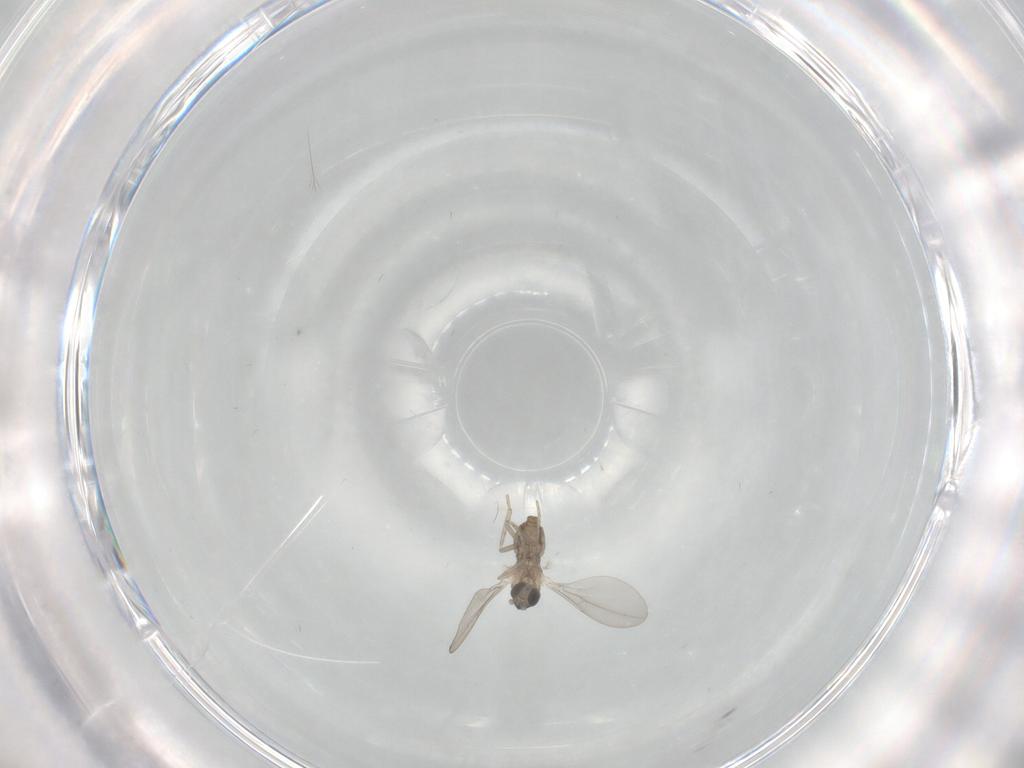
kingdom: Animalia
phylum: Arthropoda
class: Insecta
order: Diptera
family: Cecidomyiidae
